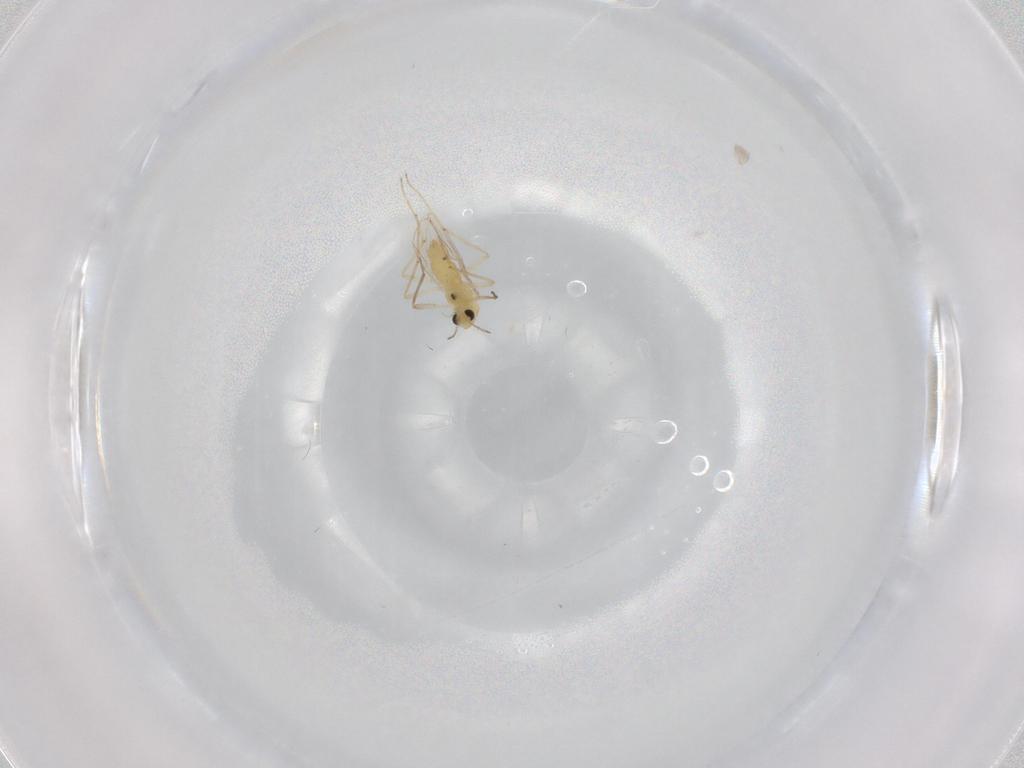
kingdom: Animalia
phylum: Arthropoda
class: Insecta
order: Diptera
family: Chironomidae
